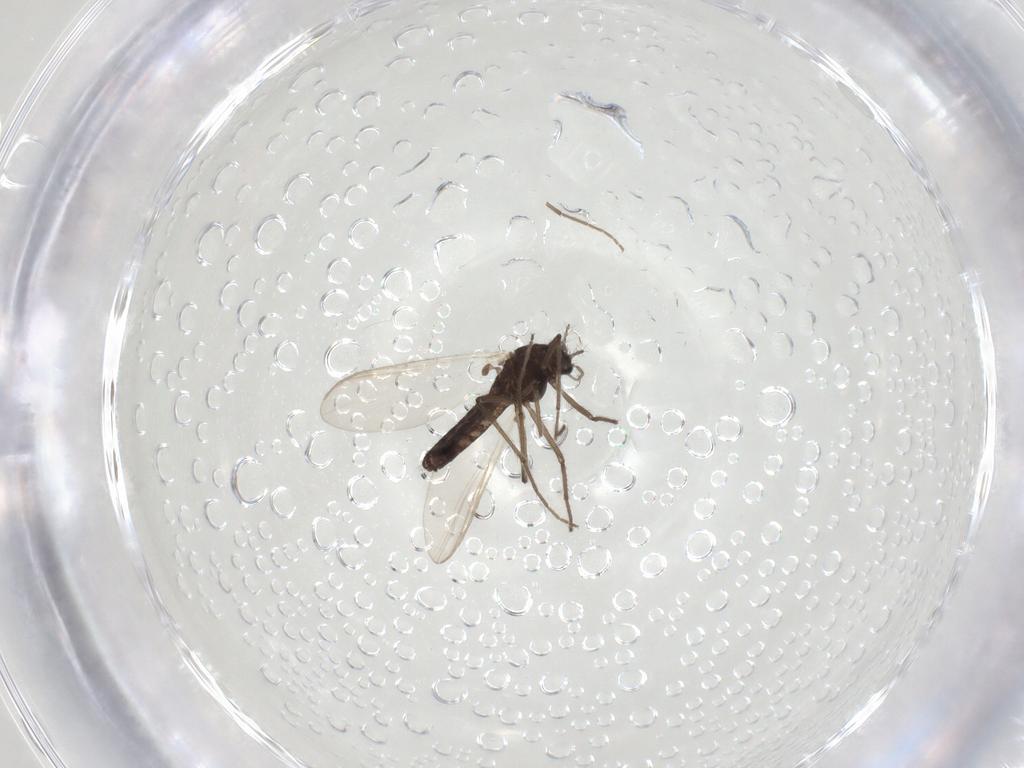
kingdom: Animalia
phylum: Arthropoda
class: Insecta
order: Diptera
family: Chironomidae
